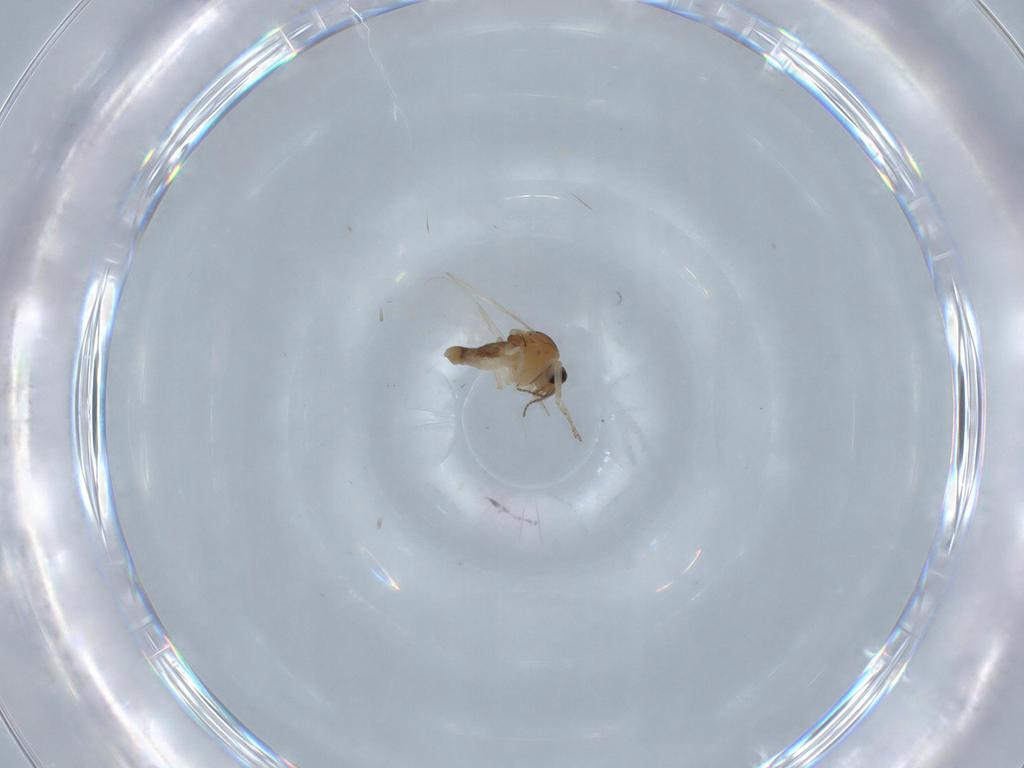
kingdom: Animalia
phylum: Arthropoda
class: Insecta
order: Diptera
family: Ceratopogonidae
